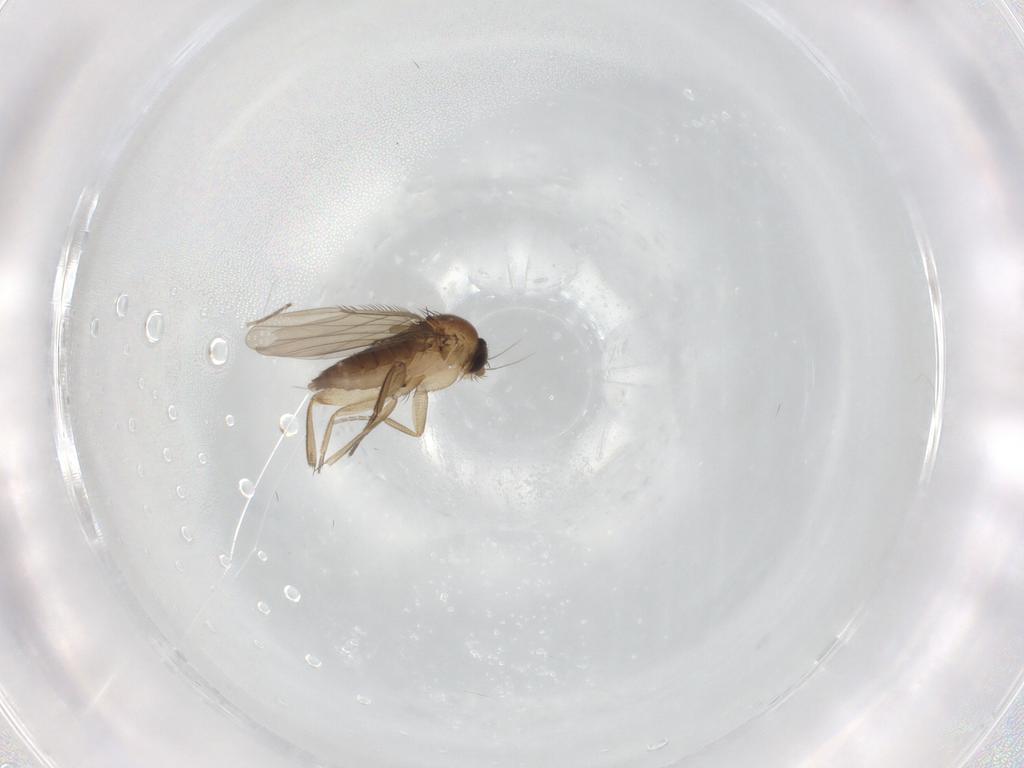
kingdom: Animalia
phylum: Arthropoda
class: Insecta
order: Diptera
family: Phoridae
